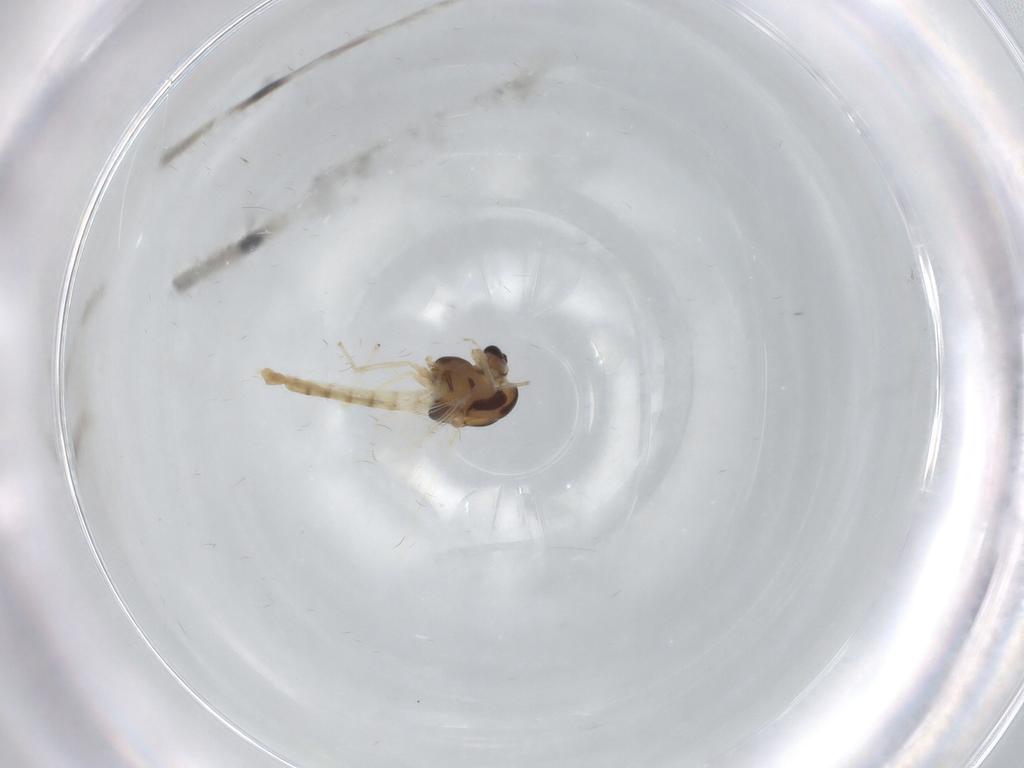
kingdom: Animalia
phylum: Arthropoda
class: Insecta
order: Diptera
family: Chironomidae
